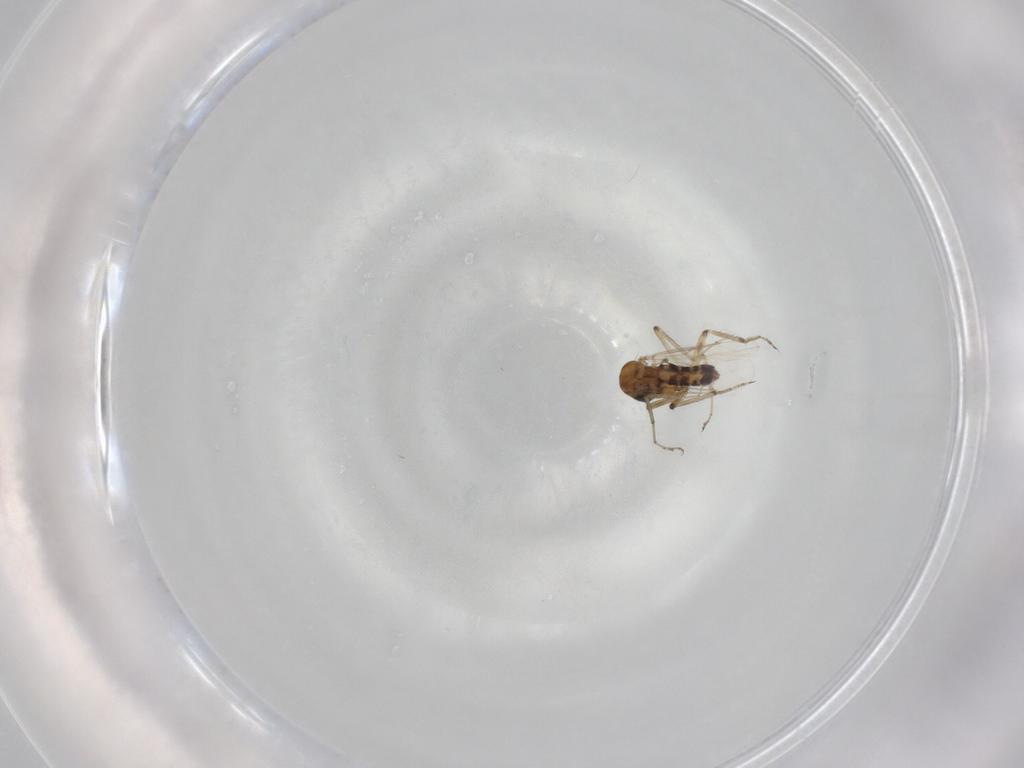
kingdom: Animalia
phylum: Arthropoda
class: Insecta
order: Diptera
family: Ceratopogonidae
